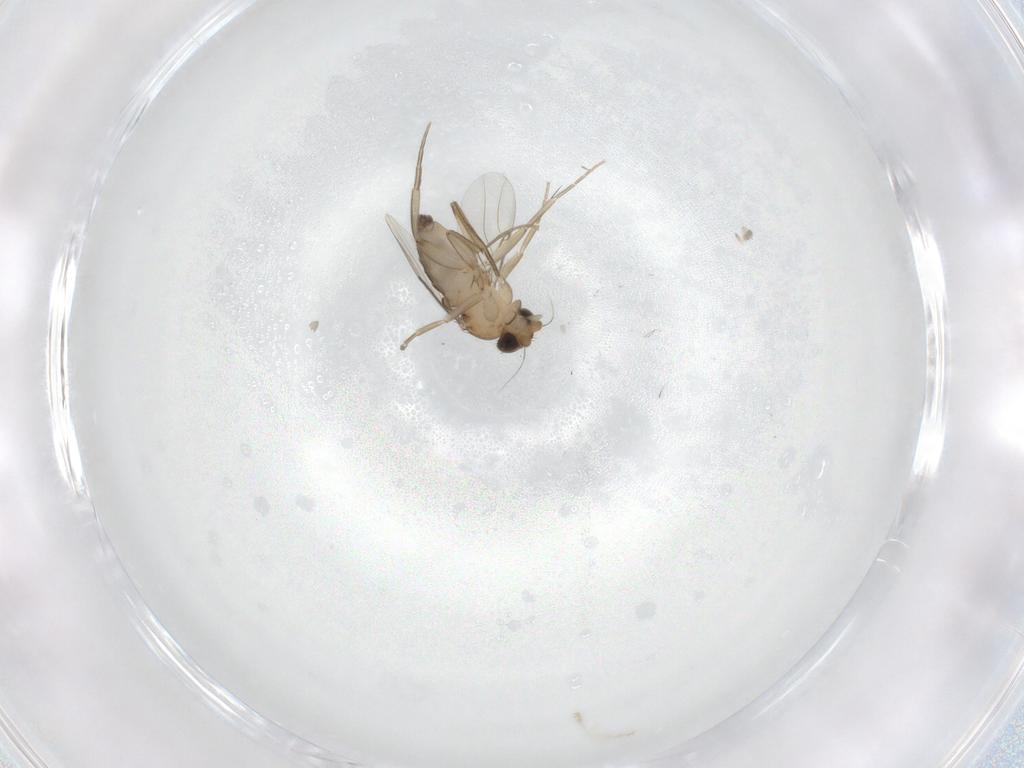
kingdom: Animalia
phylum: Arthropoda
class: Insecta
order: Diptera
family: Phoridae
